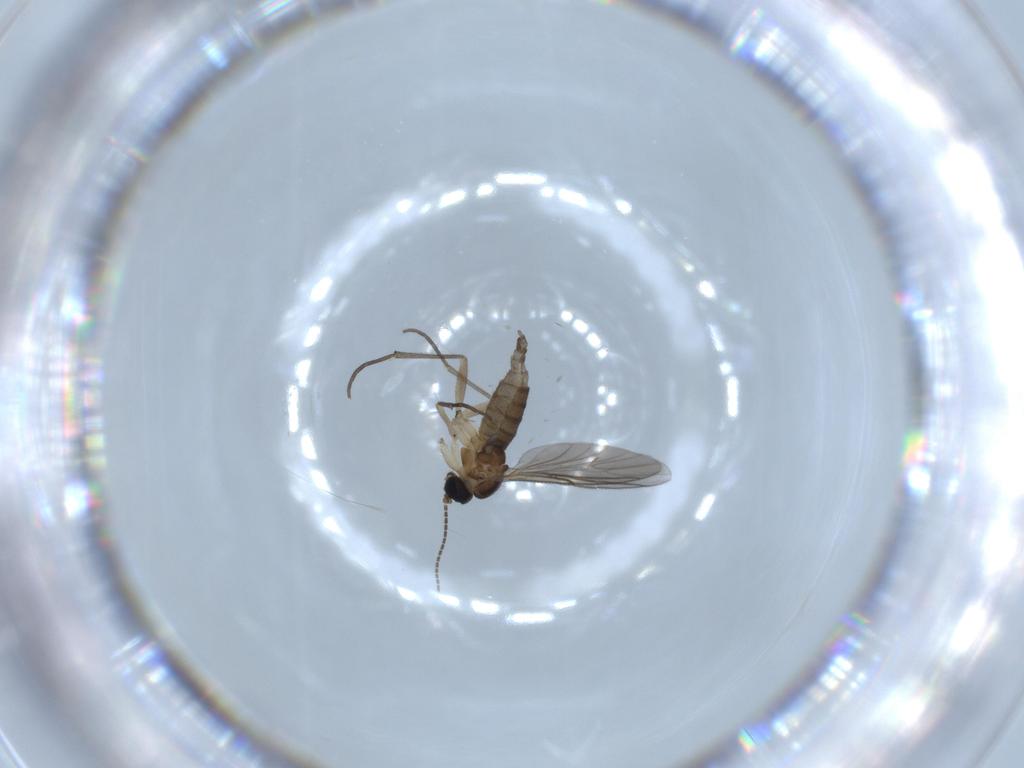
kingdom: Animalia
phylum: Arthropoda
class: Insecta
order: Diptera
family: Sciaridae
